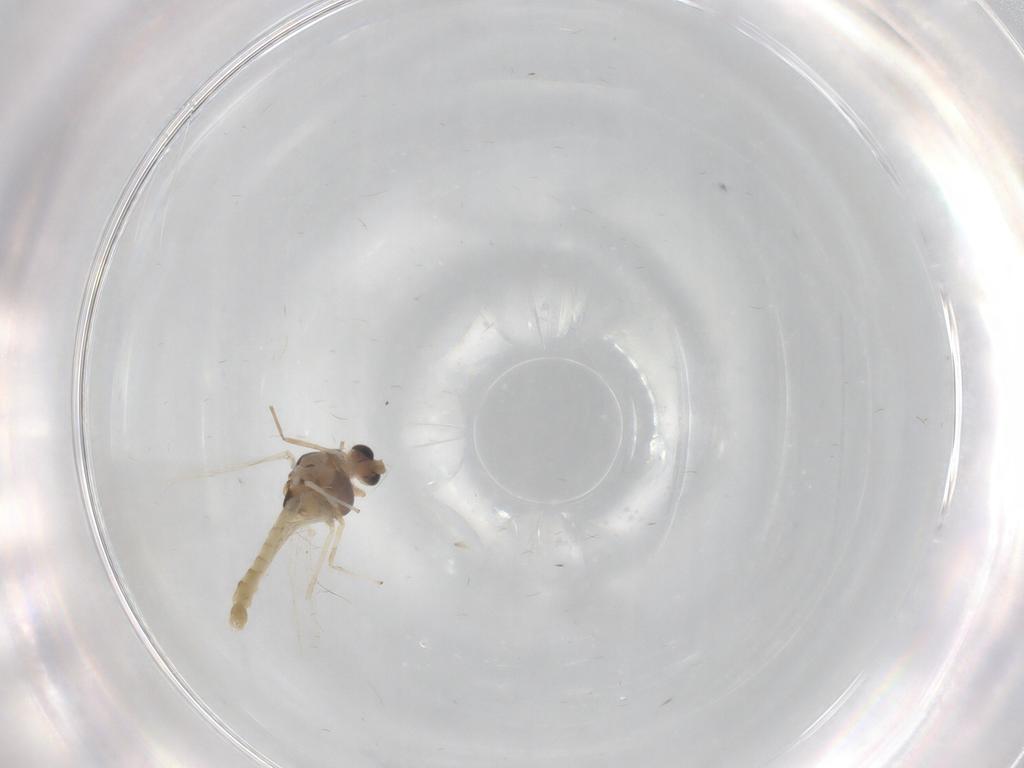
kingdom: Animalia
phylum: Arthropoda
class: Insecta
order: Diptera
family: Chironomidae
